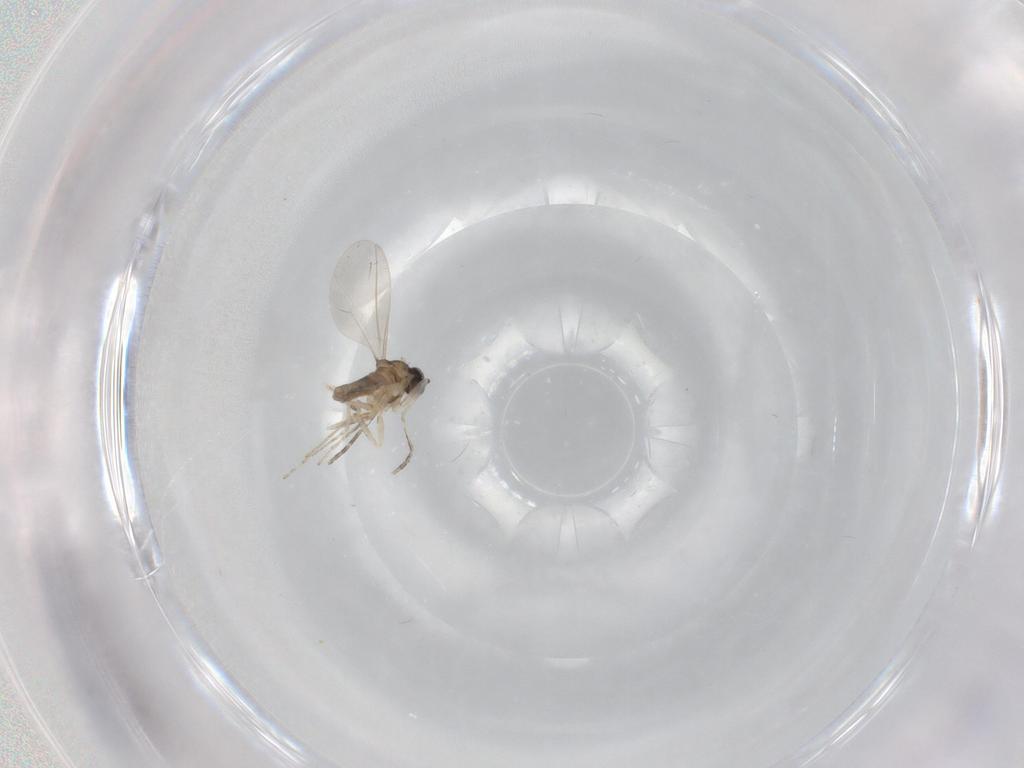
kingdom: Animalia
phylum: Arthropoda
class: Insecta
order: Diptera
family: Cecidomyiidae
